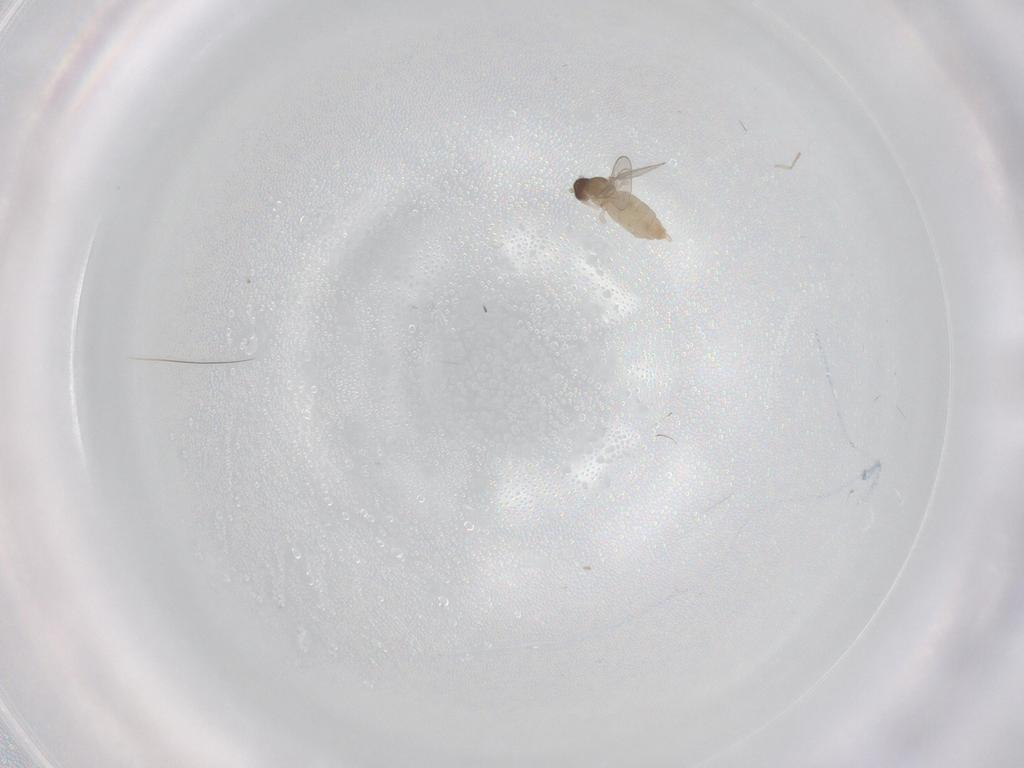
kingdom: Animalia
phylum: Arthropoda
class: Insecta
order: Diptera
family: Cecidomyiidae
